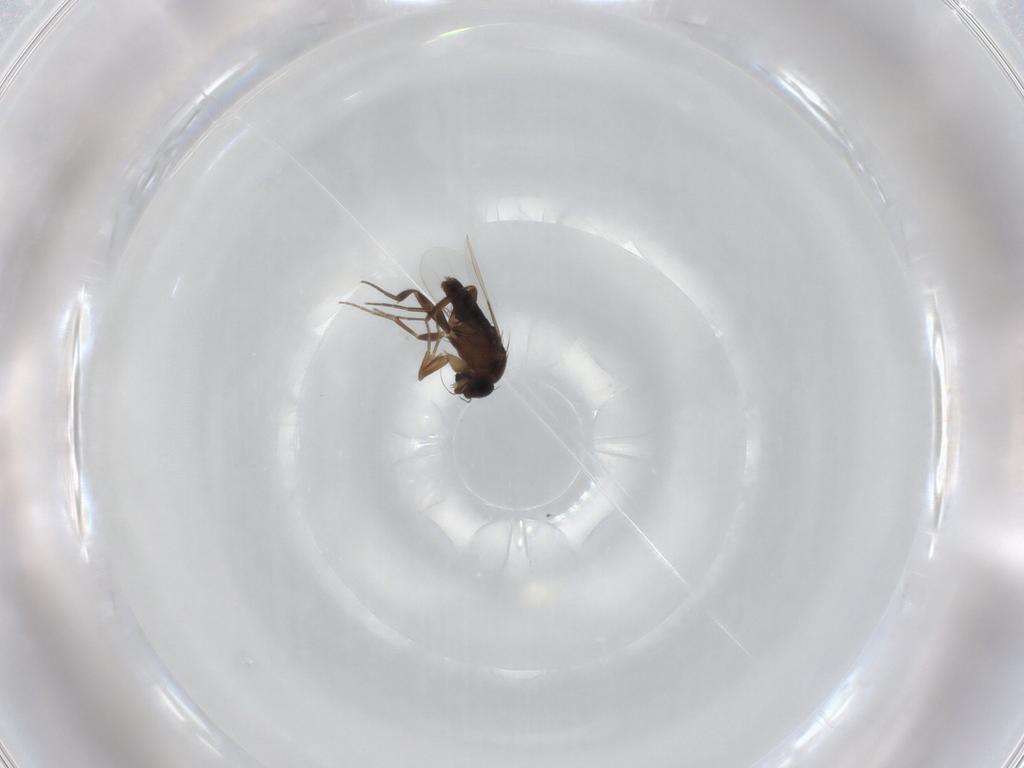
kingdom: Animalia
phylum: Arthropoda
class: Insecta
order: Diptera
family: Phoridae
